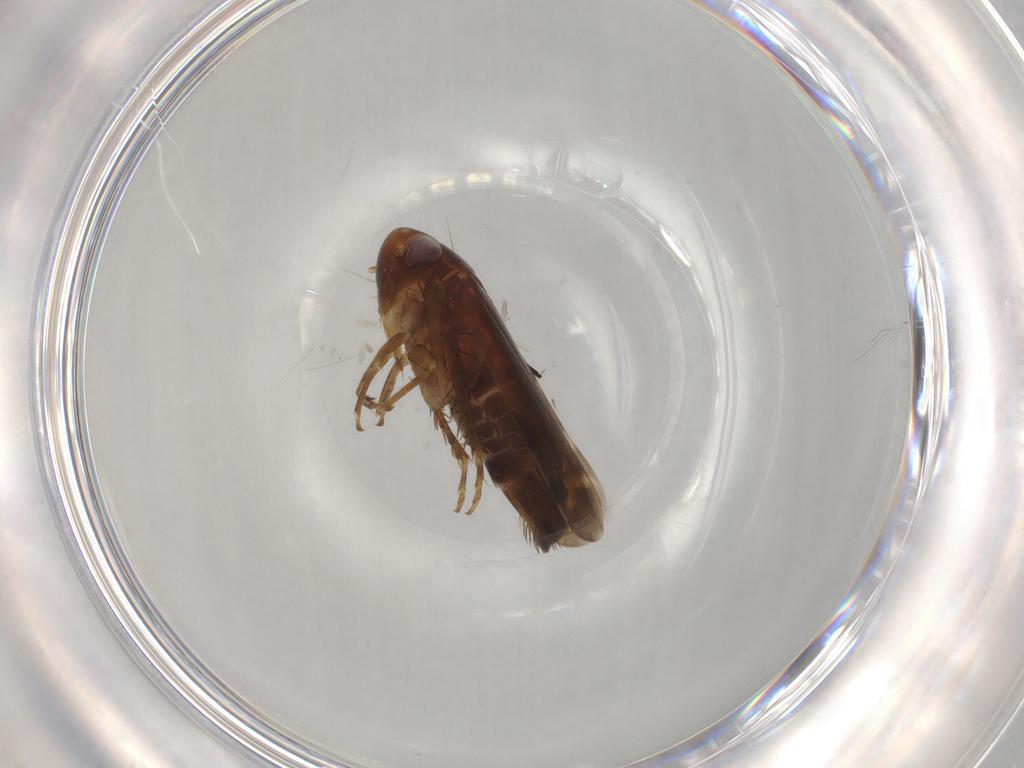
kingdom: Animalia
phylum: Arthropoda
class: Insecta
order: Hemiptera
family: Cicadellidae
